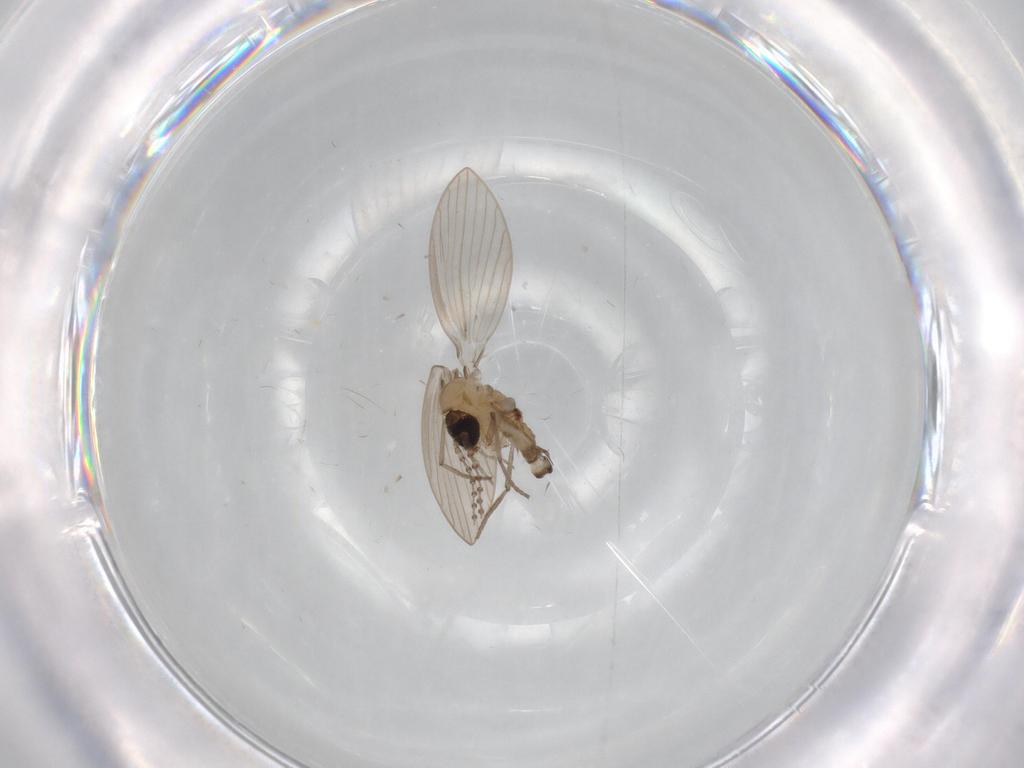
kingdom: Animalia
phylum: Arthropoda
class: Insecta
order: Diptera
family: Psychodidae
